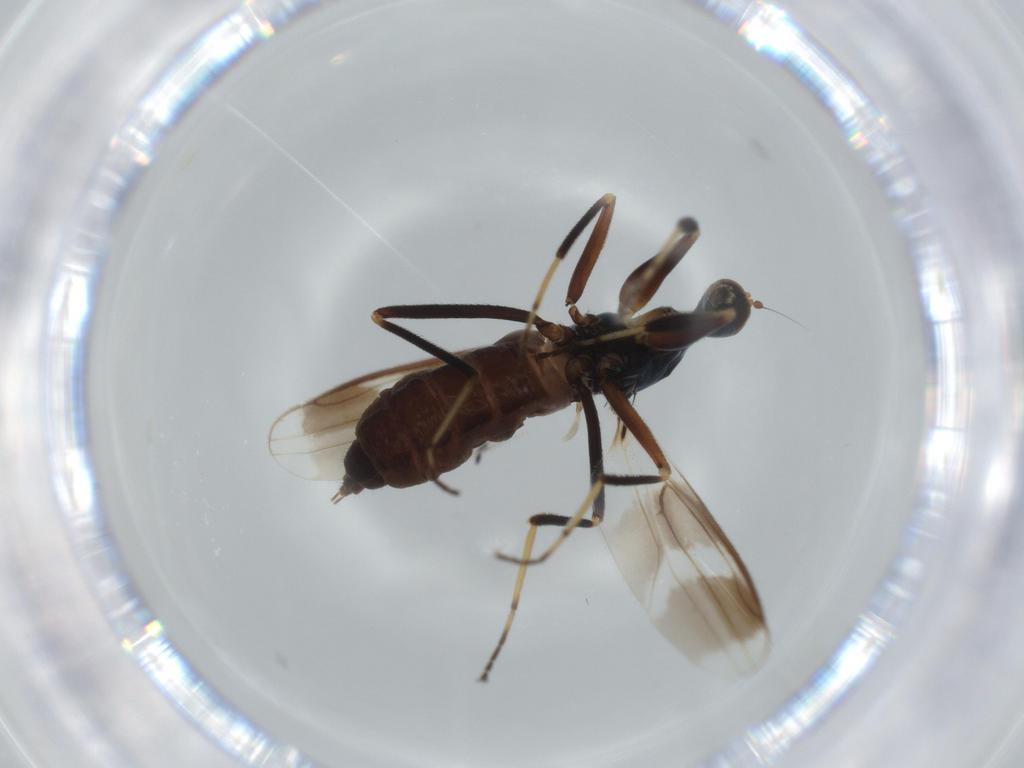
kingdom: Animalia
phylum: Arthropoda
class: Insecta
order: Diptera
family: Hybotidae
